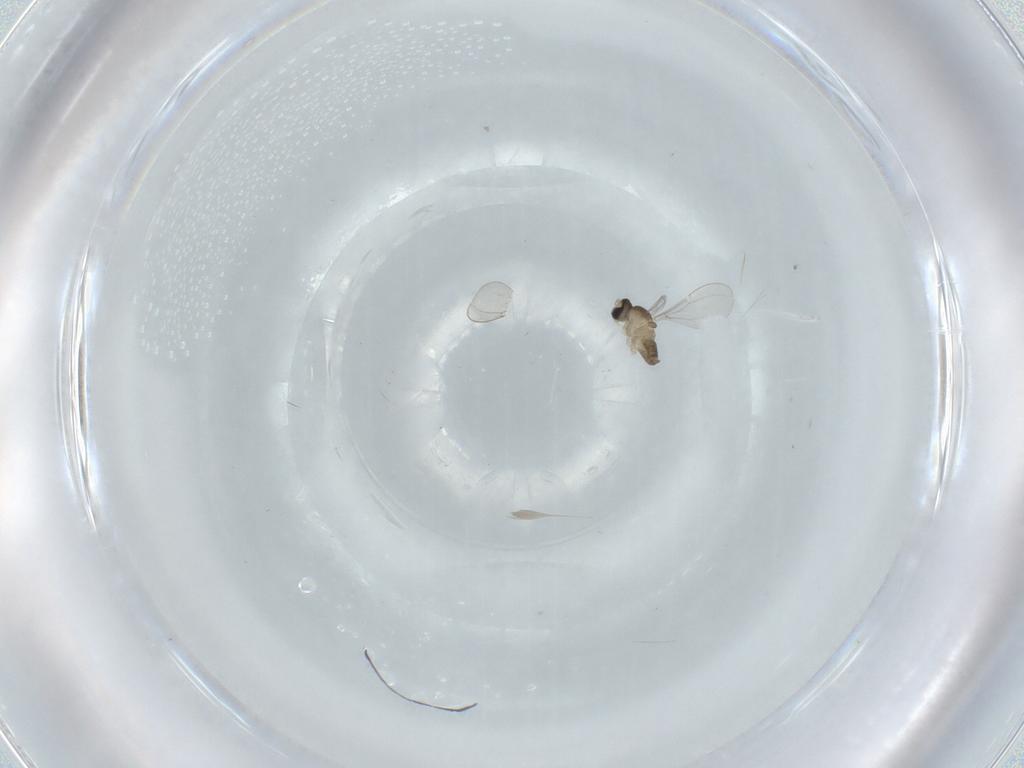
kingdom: Animalia
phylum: Arthropoda
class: Insecta
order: Diptera
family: Cecidomyiidae
